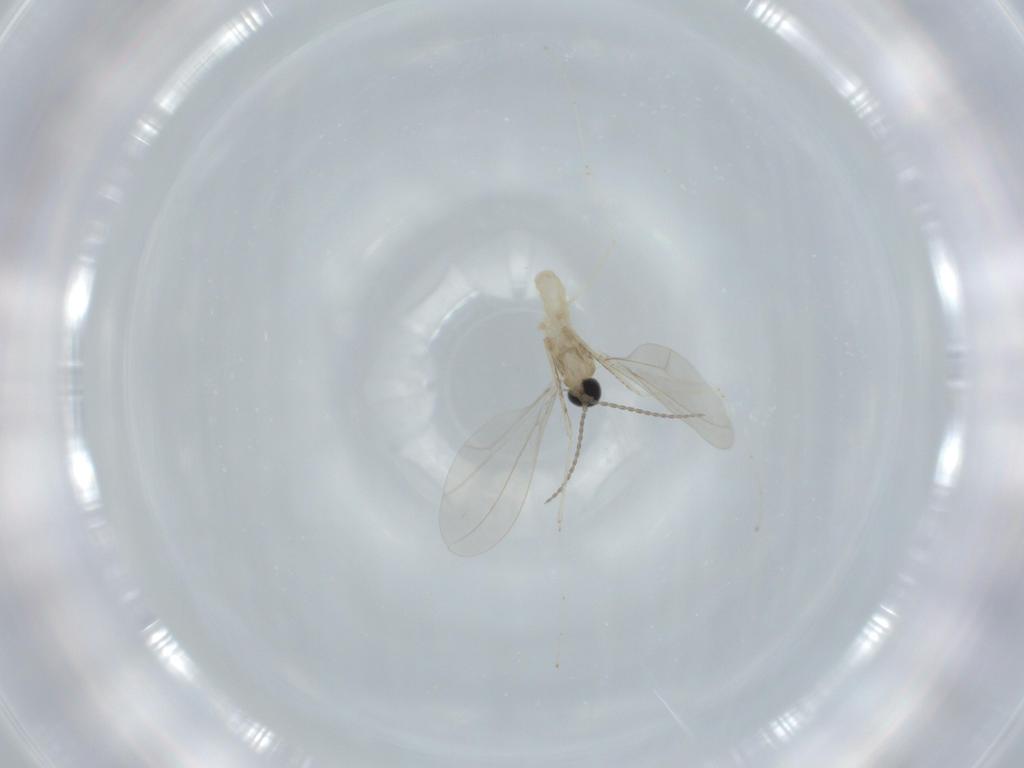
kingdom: Animalia
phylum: Arthropoda
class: Insecta
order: Diptera
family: Cecidomyiidae
